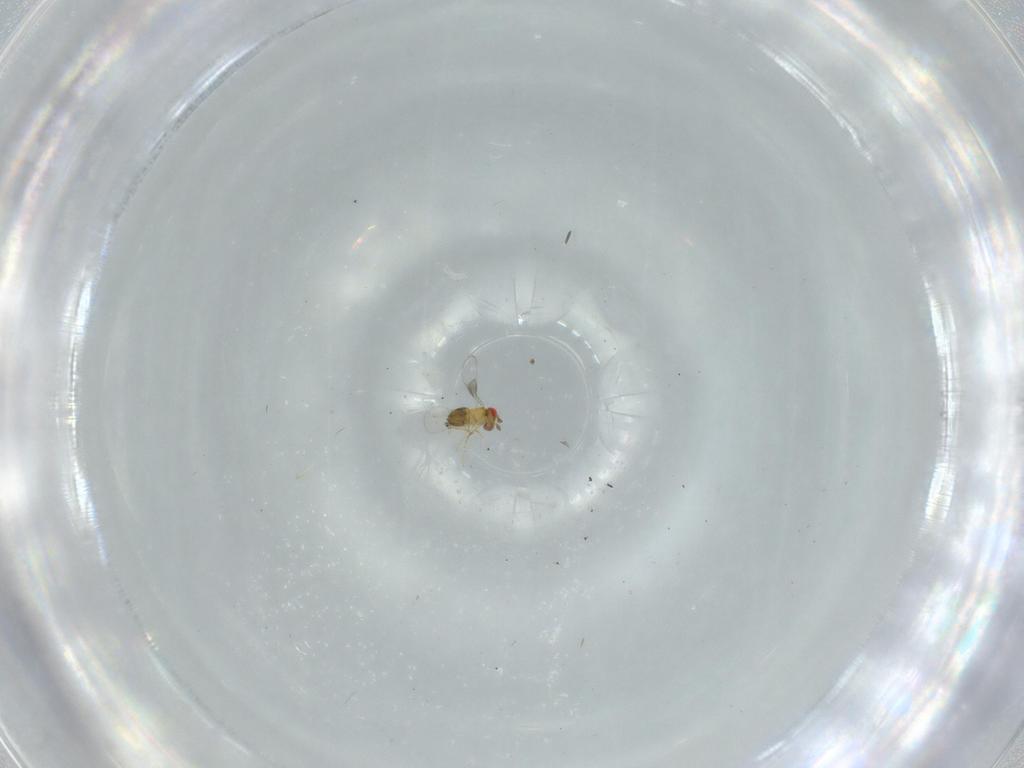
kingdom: Animalia
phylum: Arthropoda
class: Insecta
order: Hymenoptera
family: Trichogrammatidae
